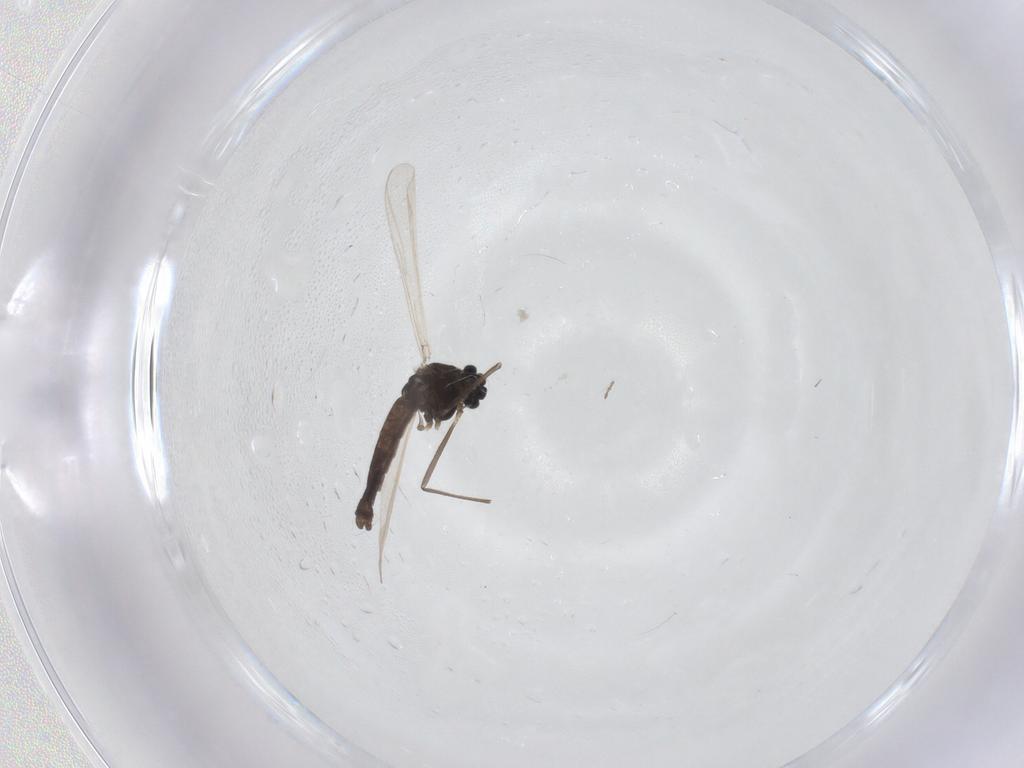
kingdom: Animalia
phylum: Arthropoda
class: Insecta
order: Diptera
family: Chironomidae
